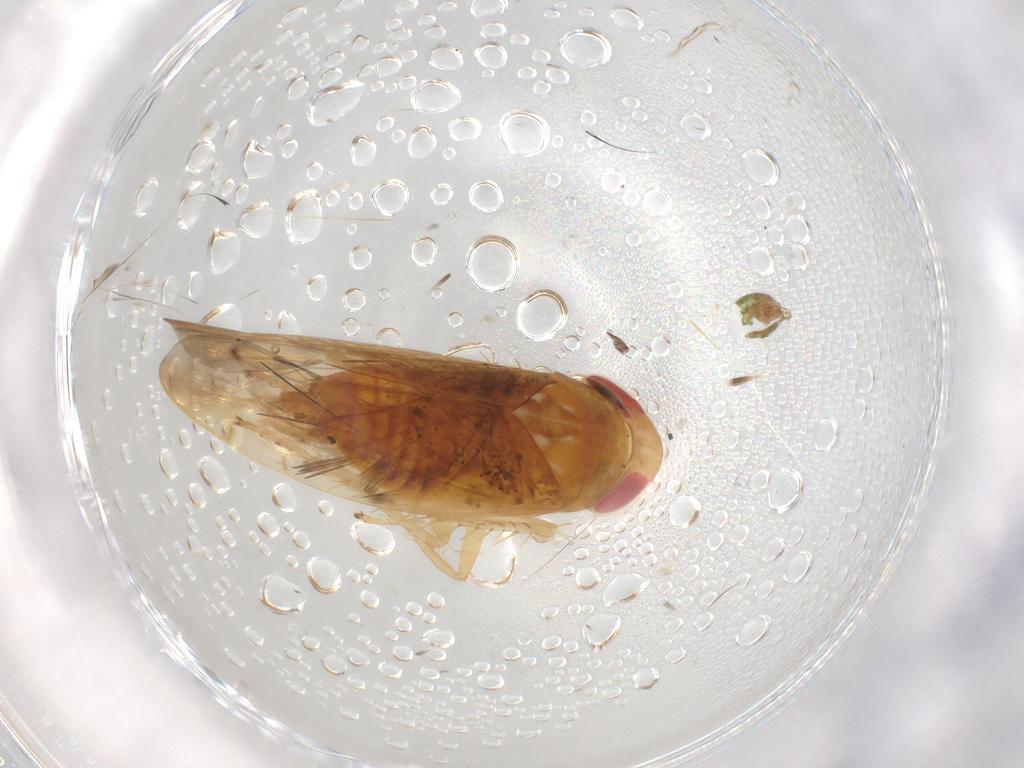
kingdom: Animalia
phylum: Arthropoda
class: Insecta
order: Hemiptera
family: Cicadellidae
